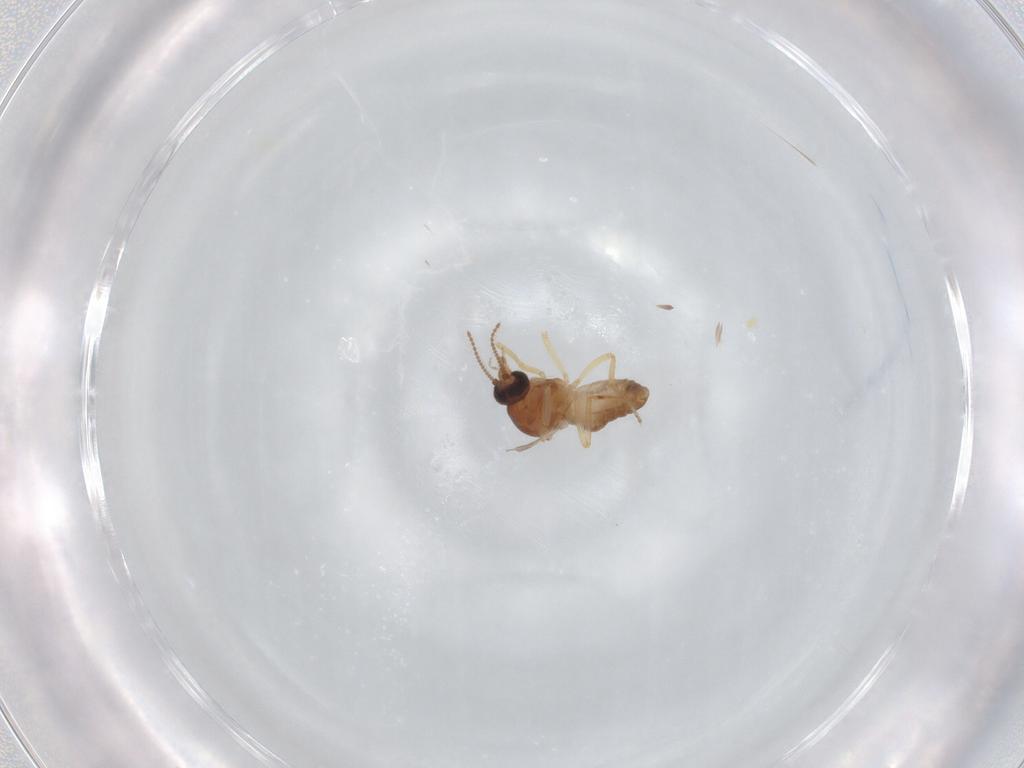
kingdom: Animalia
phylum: Arthropoda
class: Insecta
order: Diptera
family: Ceratopogonidae
